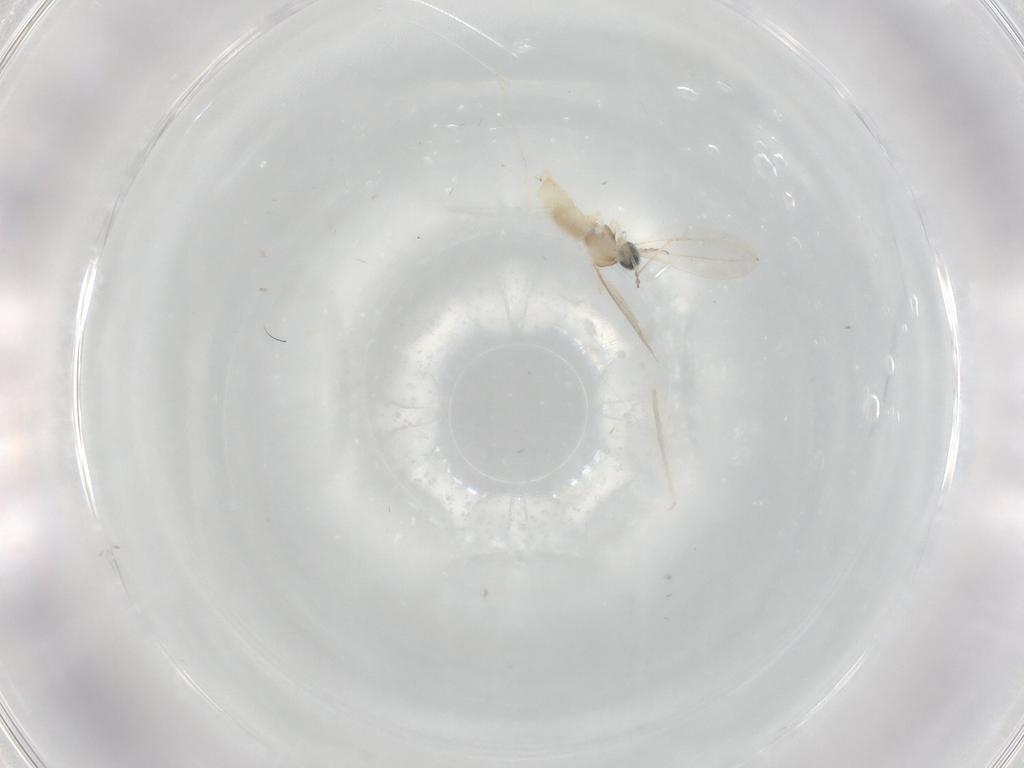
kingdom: Animalia
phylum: Arthropoda
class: Insecta
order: Diptera
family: Cecidomyiidae
